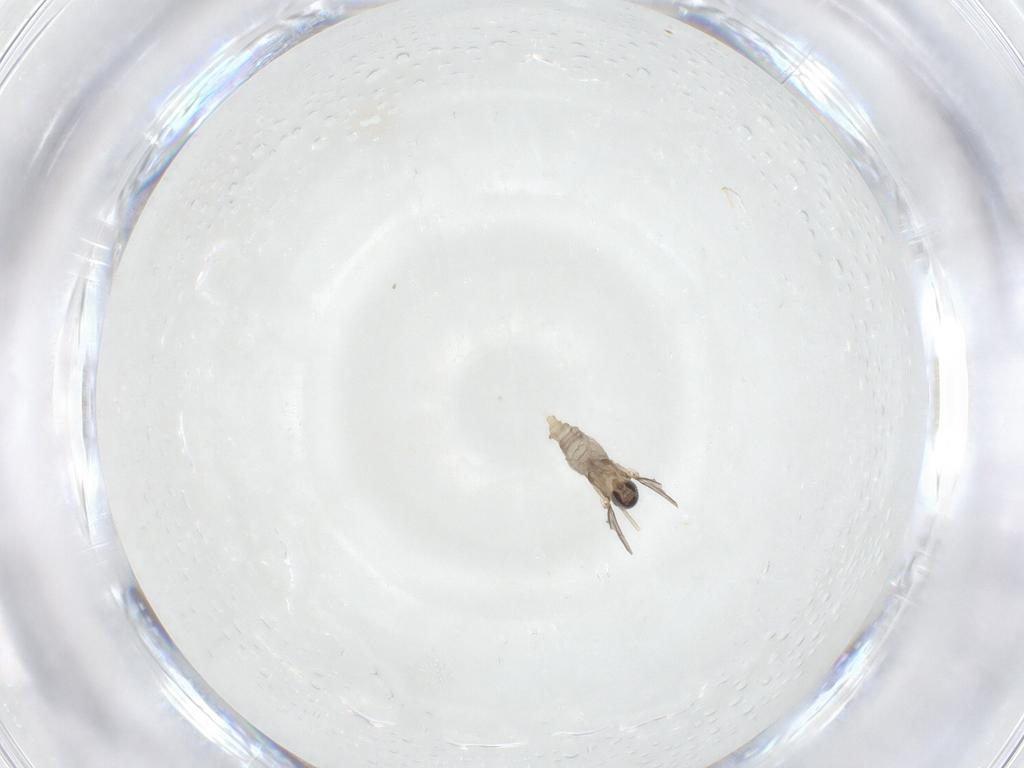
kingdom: Animalia
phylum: Arthropoda
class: Insecta
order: Diptera
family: Cecidomyiidae
